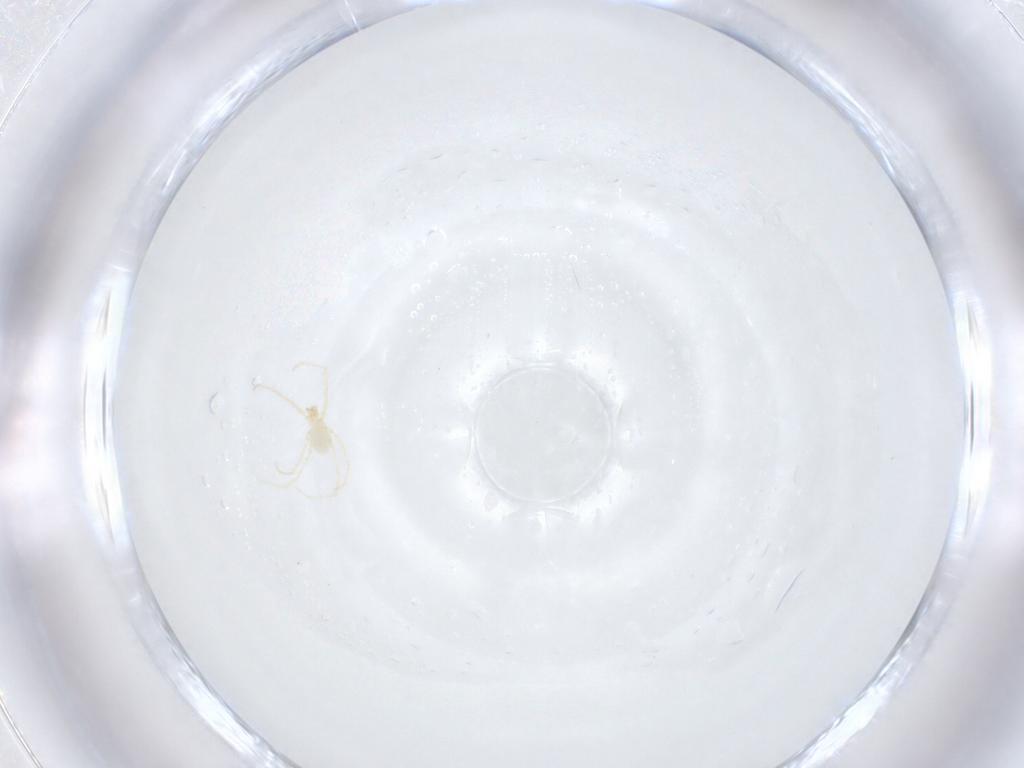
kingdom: Animalia
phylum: Arthropoda
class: Arachnida
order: Trombidiformes
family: Erythraeidae
